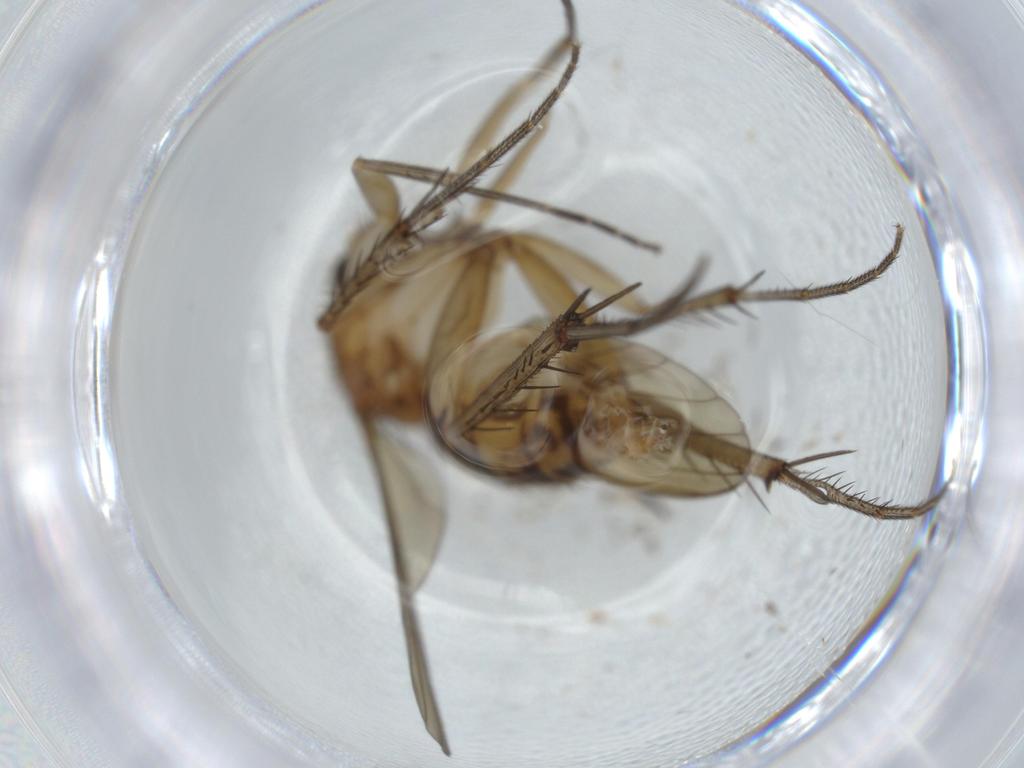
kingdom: Animalia
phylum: Arthropoda
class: Insecta
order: Diptera
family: Mycetophilidae
